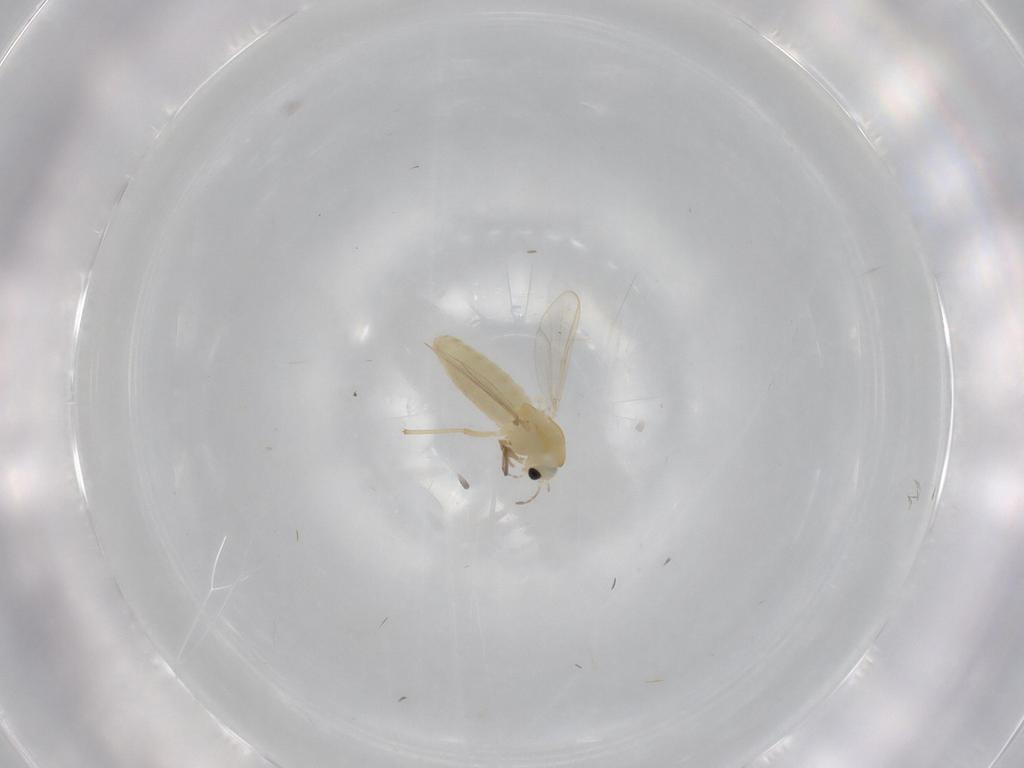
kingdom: Animalia
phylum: Arthropoda
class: Insecta
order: Diptera
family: Chironomidae
